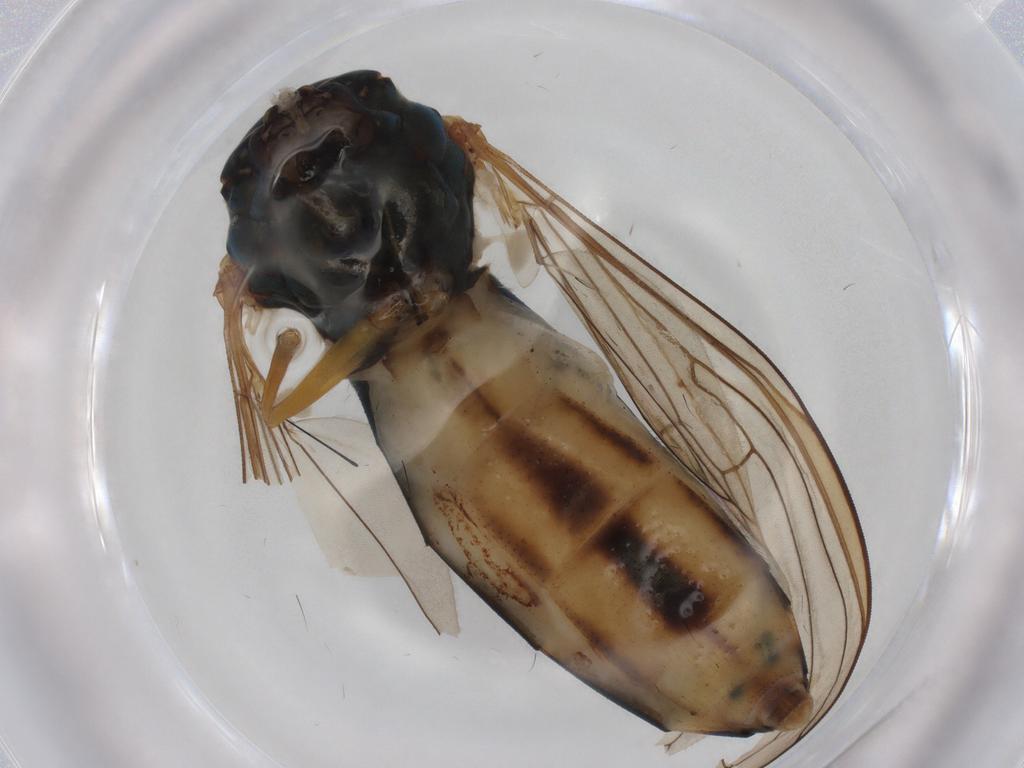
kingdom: Animalia
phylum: Arthropoda
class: Insecta
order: Diptera
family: Syrphidae
